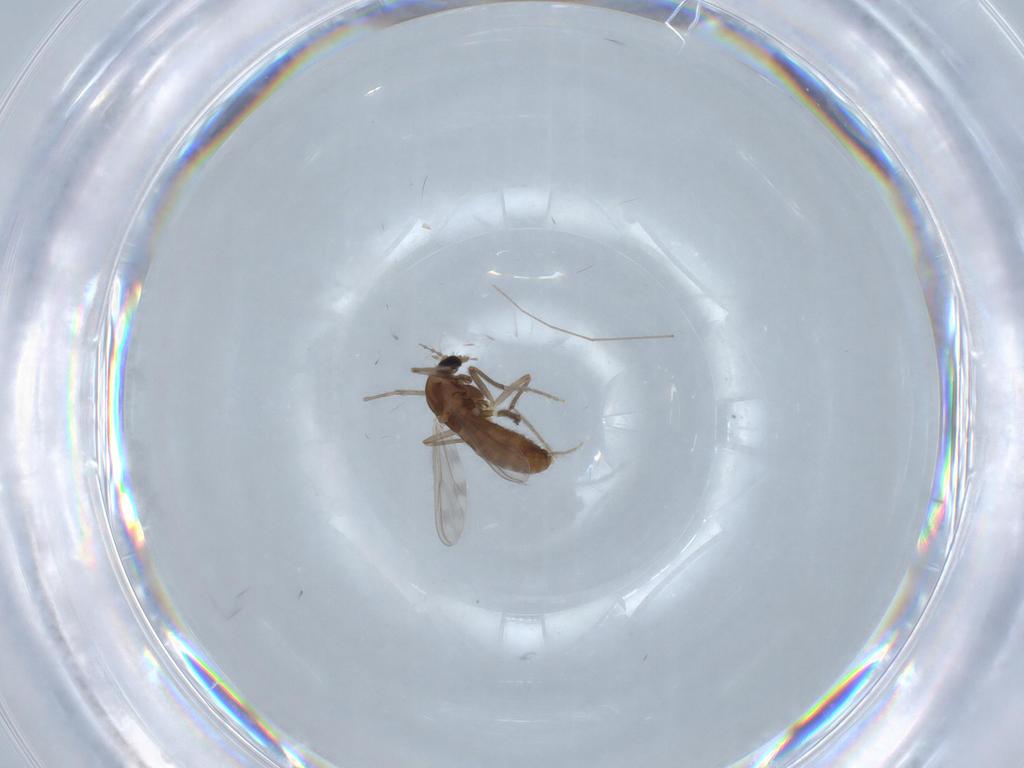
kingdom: Animalia
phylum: Arthropoda
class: Insecta
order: Diptera
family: Chironomidae
